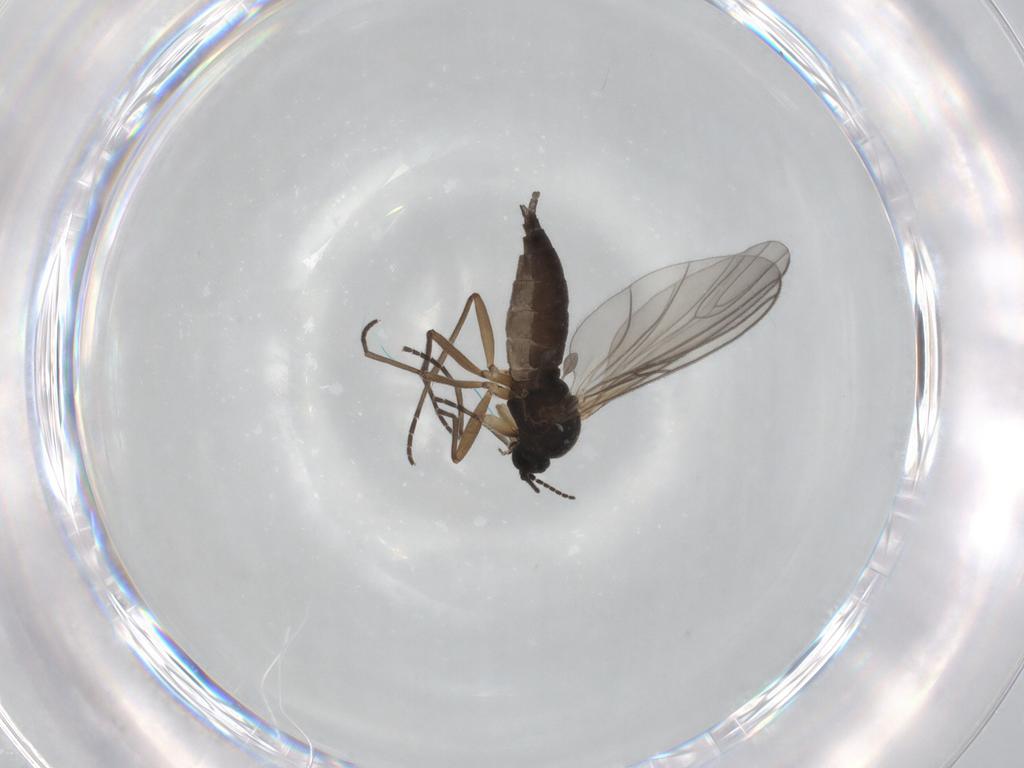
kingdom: Animalia
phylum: Arthropoda
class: Insecta
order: Diptera
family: Sciaridae
